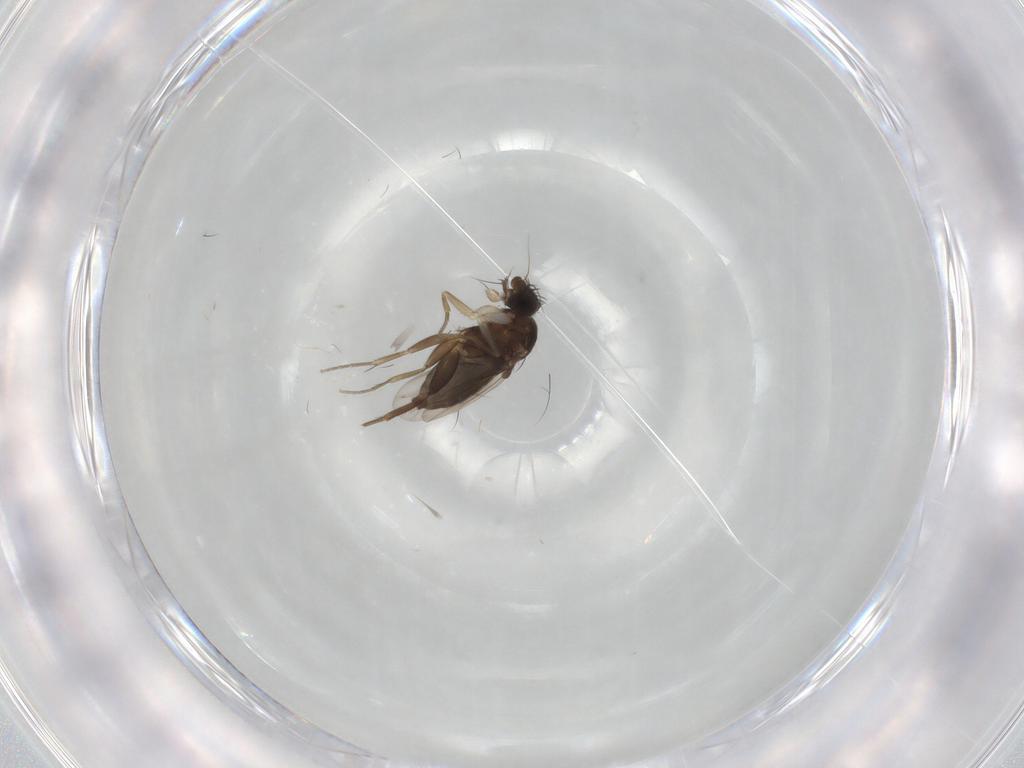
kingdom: Animalia
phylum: Arthropoda
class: Insecta
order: Diptera
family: Phoridae
